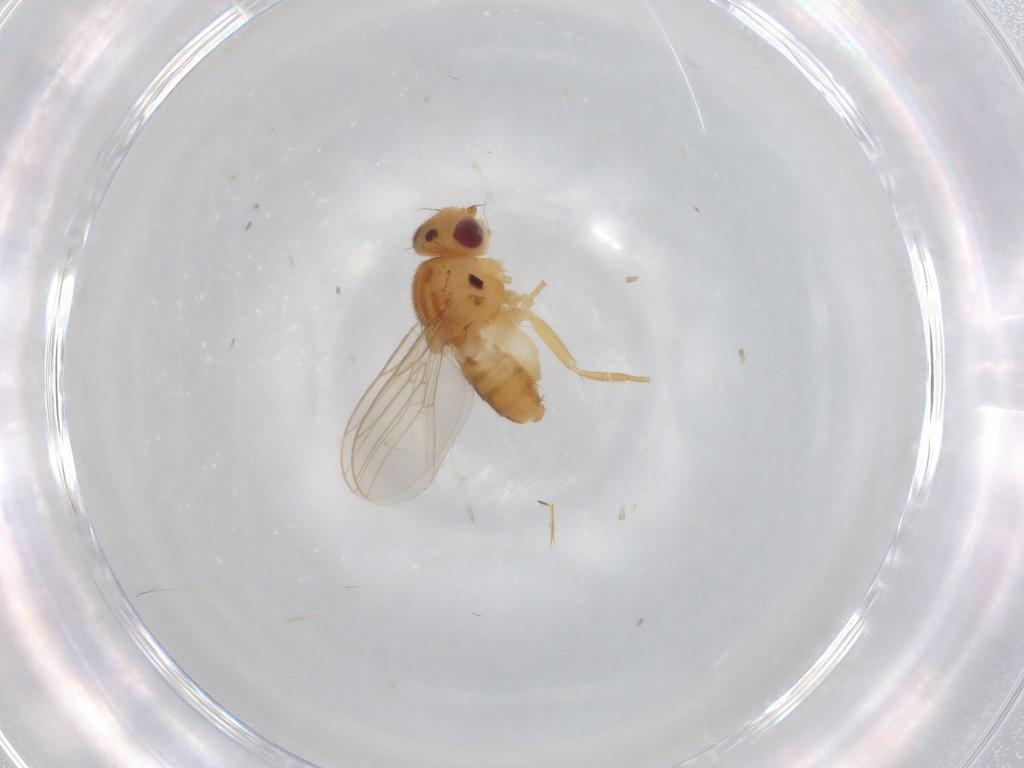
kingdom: Animalia
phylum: Arthropoda
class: Insecta
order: Diptera
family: Chloropidae
